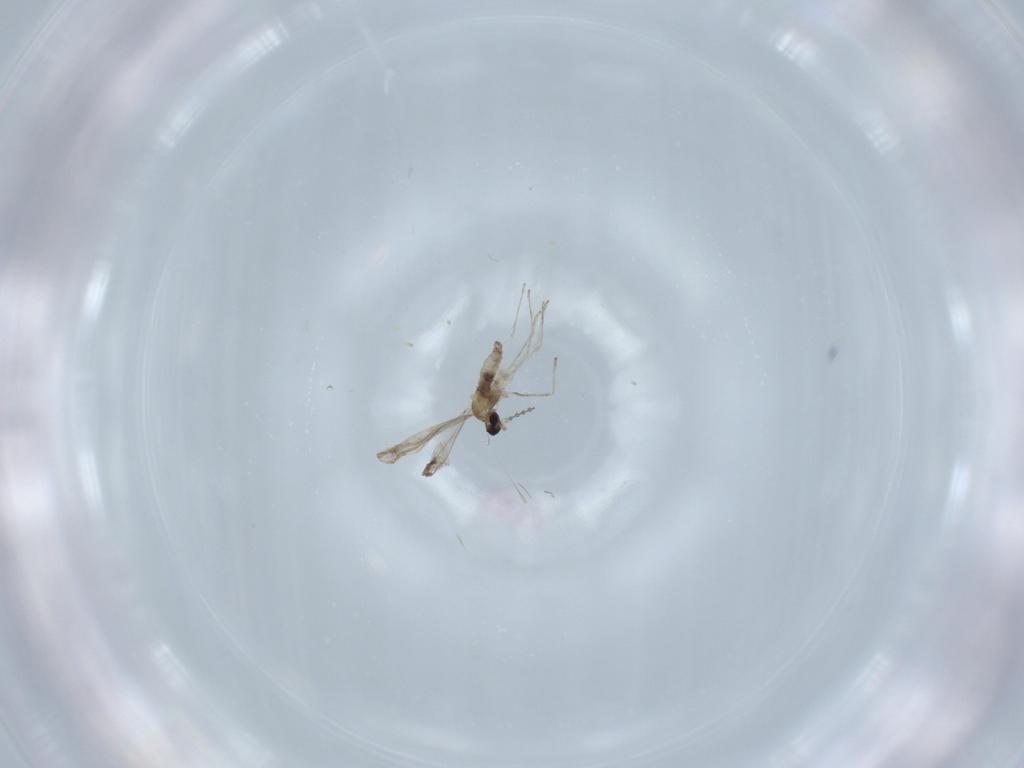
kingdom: Animalia
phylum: Arthropoda
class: Insecta
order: Diptera
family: Chironomidae
